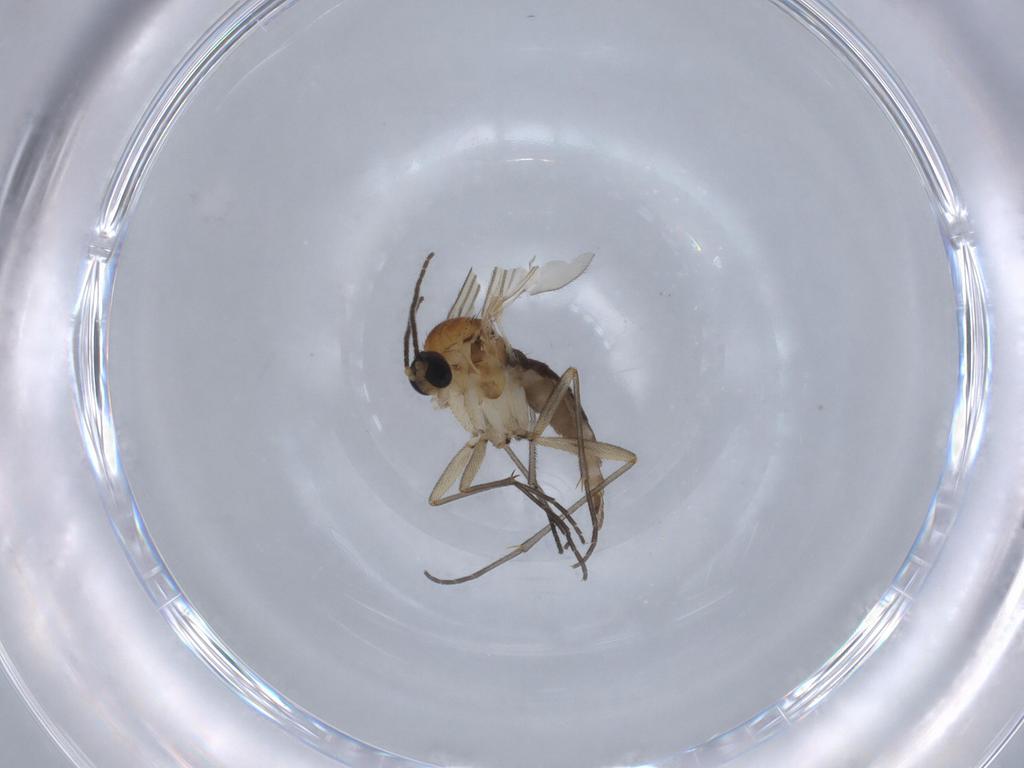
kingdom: Animalia
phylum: Arthropoda
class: Insecta
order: Diptera
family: Sciaridae
